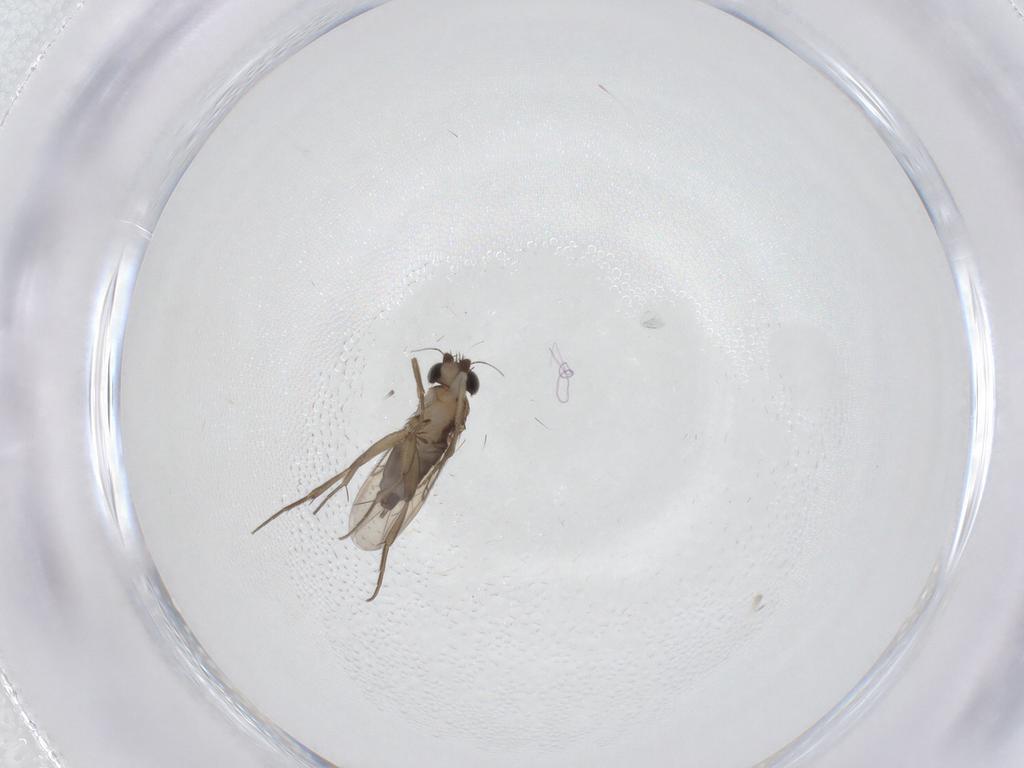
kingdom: Animalia
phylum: Arthropoda
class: Insecta
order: Diptera
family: Phoridae
